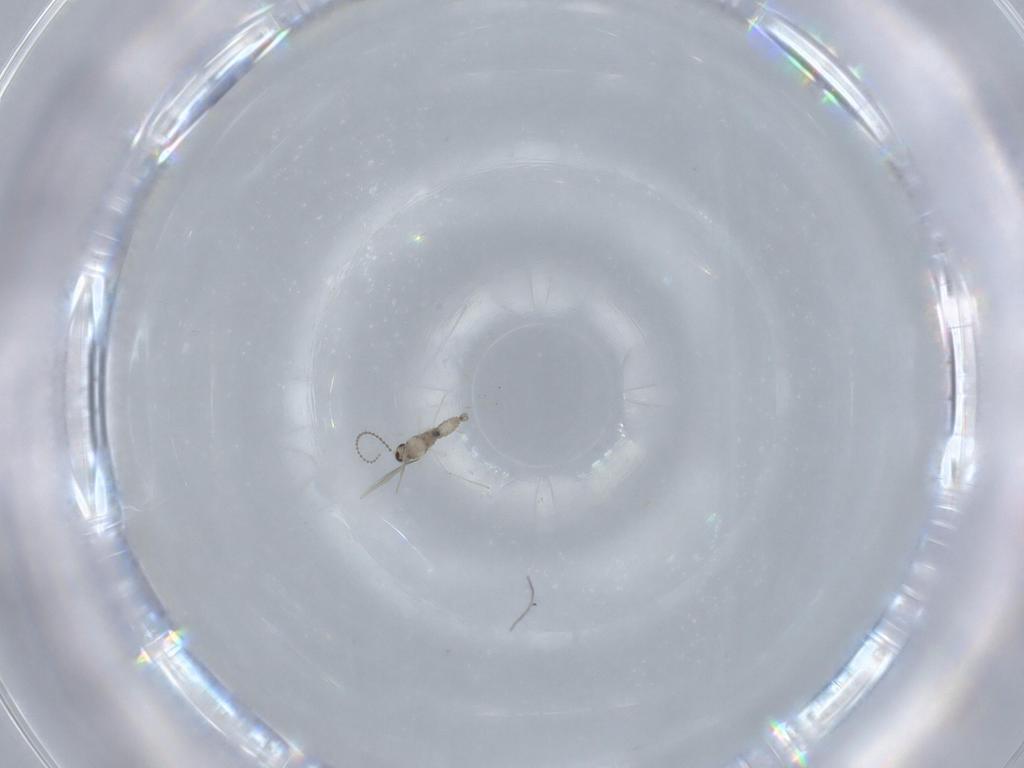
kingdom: Animalia
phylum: Arthropoda
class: Insecta
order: Diptera
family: Cecidomyiidae
